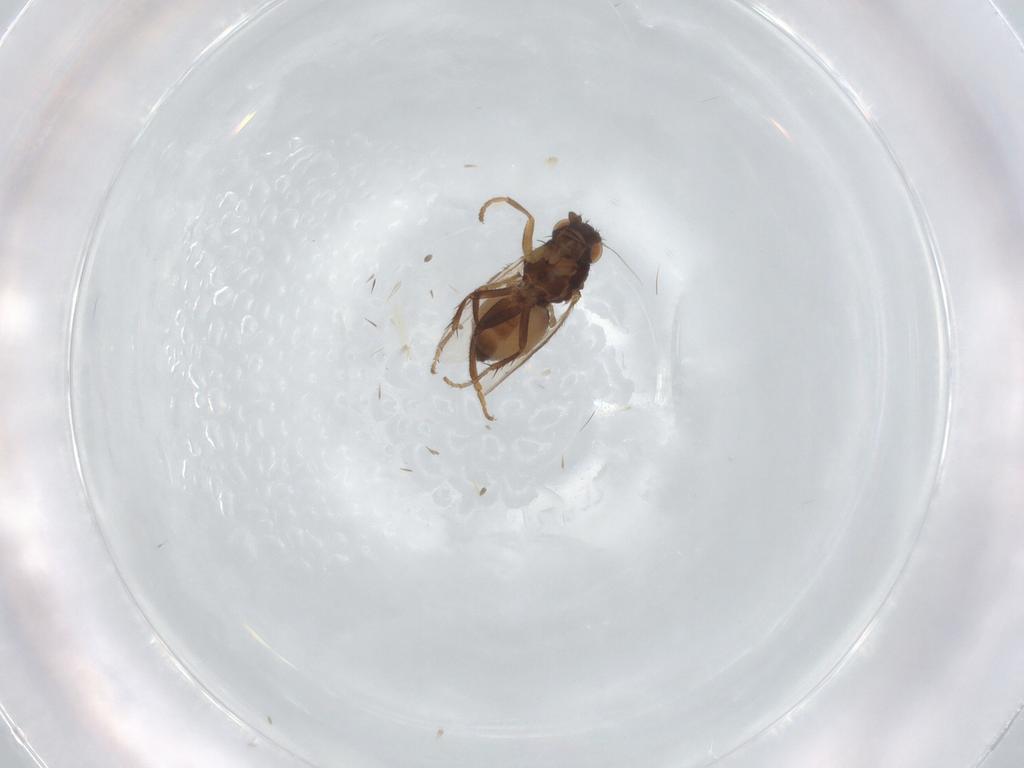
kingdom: Animalia
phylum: Arthropoda
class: Insecta
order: Diptera
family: Sphaeroceridae
